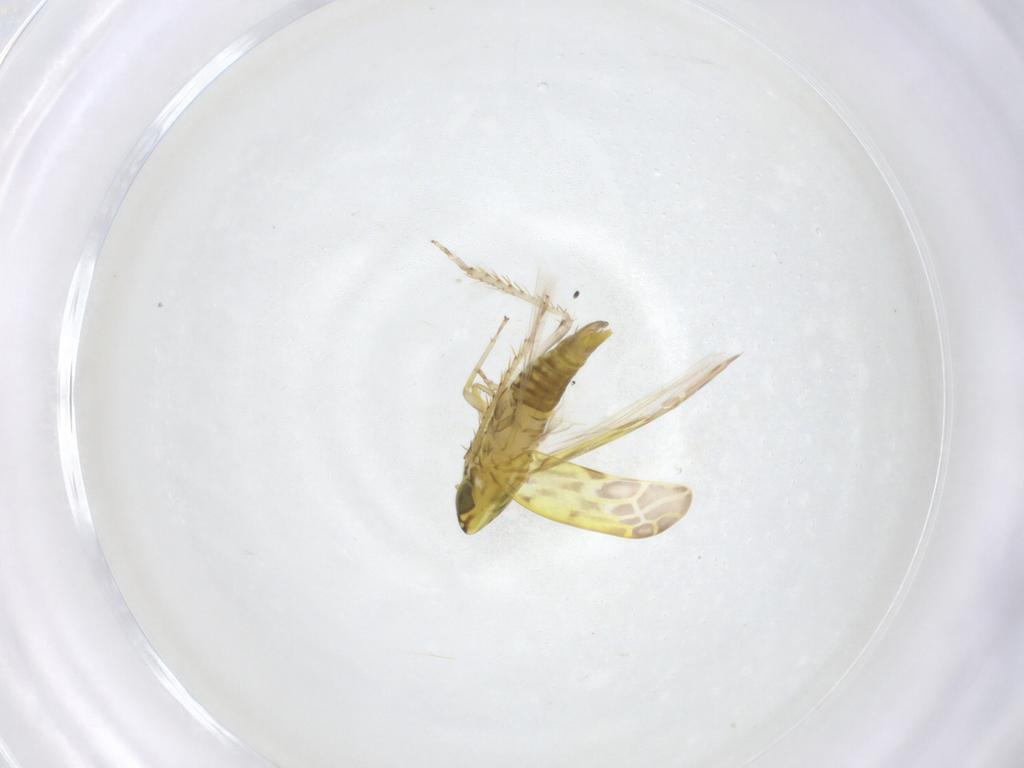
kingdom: Animalia
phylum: Arthropoda
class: Insecta
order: Hemiptera
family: Cicadellidae
